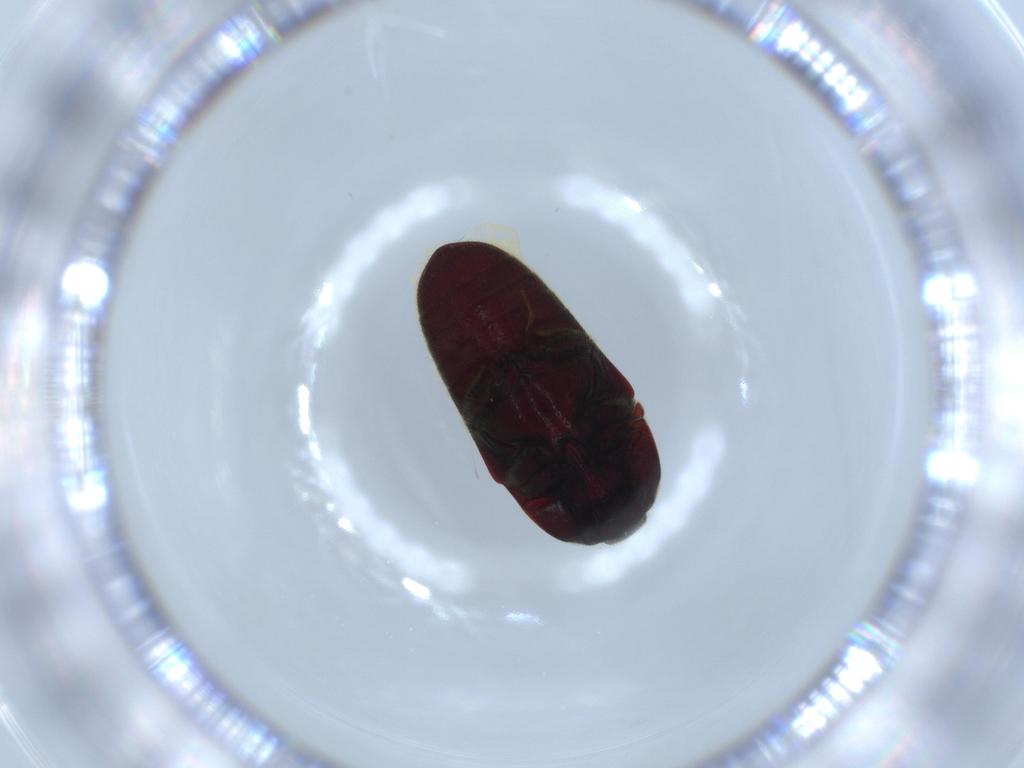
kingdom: Animalia
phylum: Arthropoda
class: Insecta
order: Coleoptera
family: Throscidae
